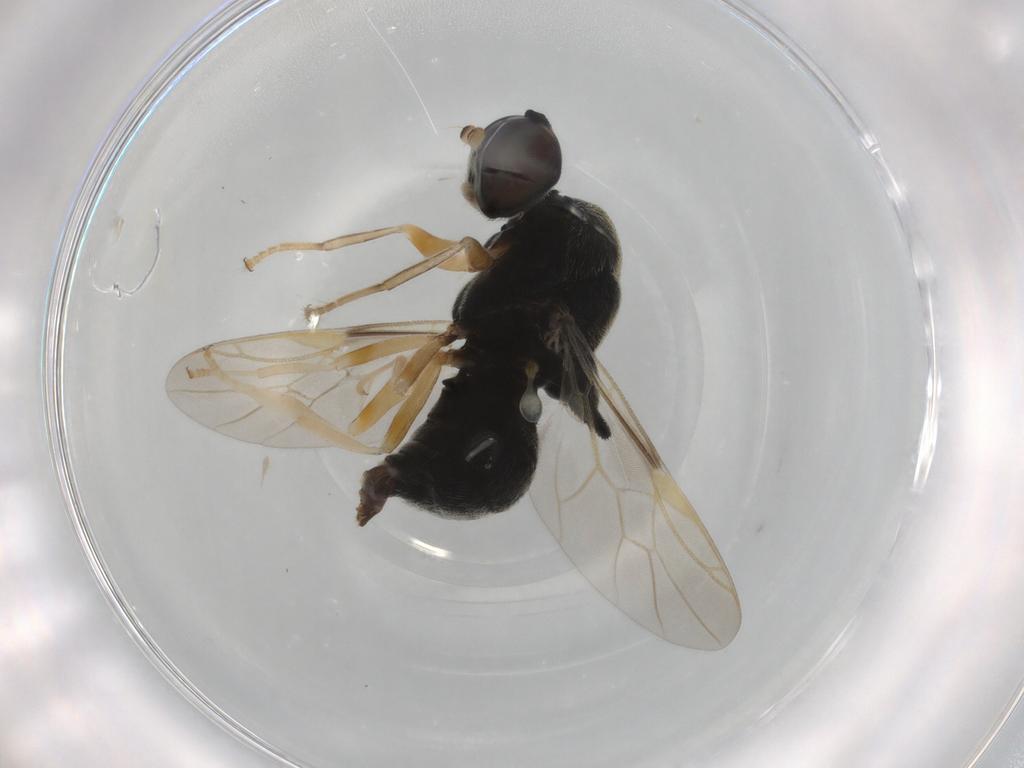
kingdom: Animalia
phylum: Arthropoda
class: Insecta
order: Diptera
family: Stratiomyidae
